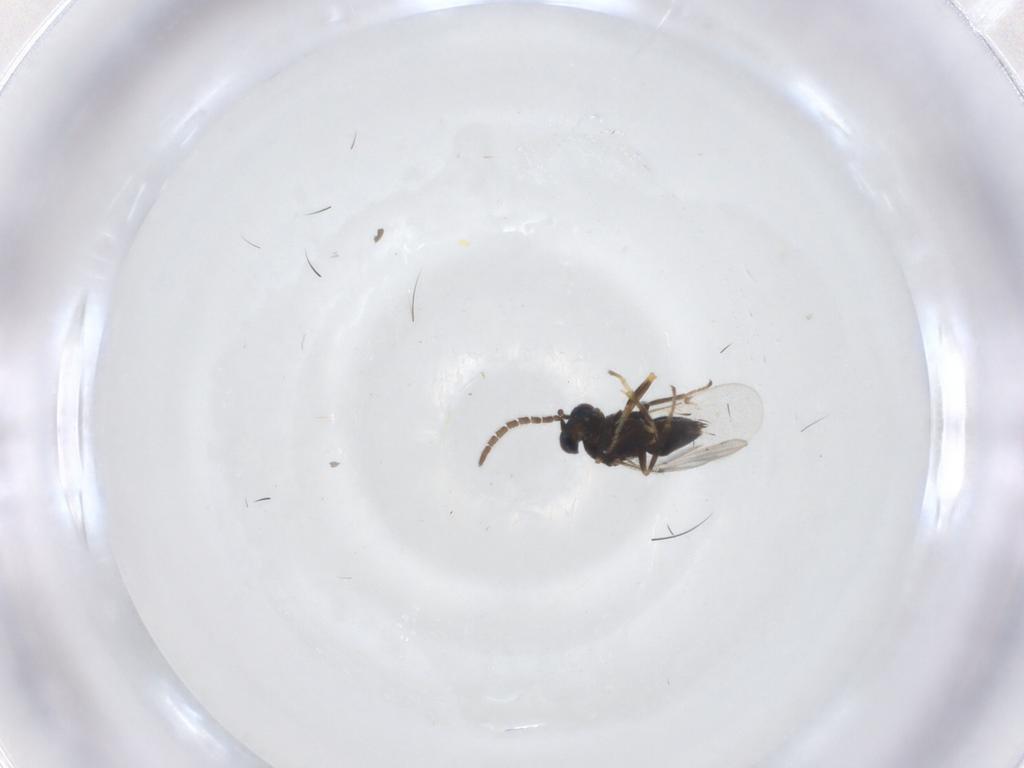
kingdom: Animalia
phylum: Arthropoda
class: Insecta
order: Hymenoptera
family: Encyrtidae
